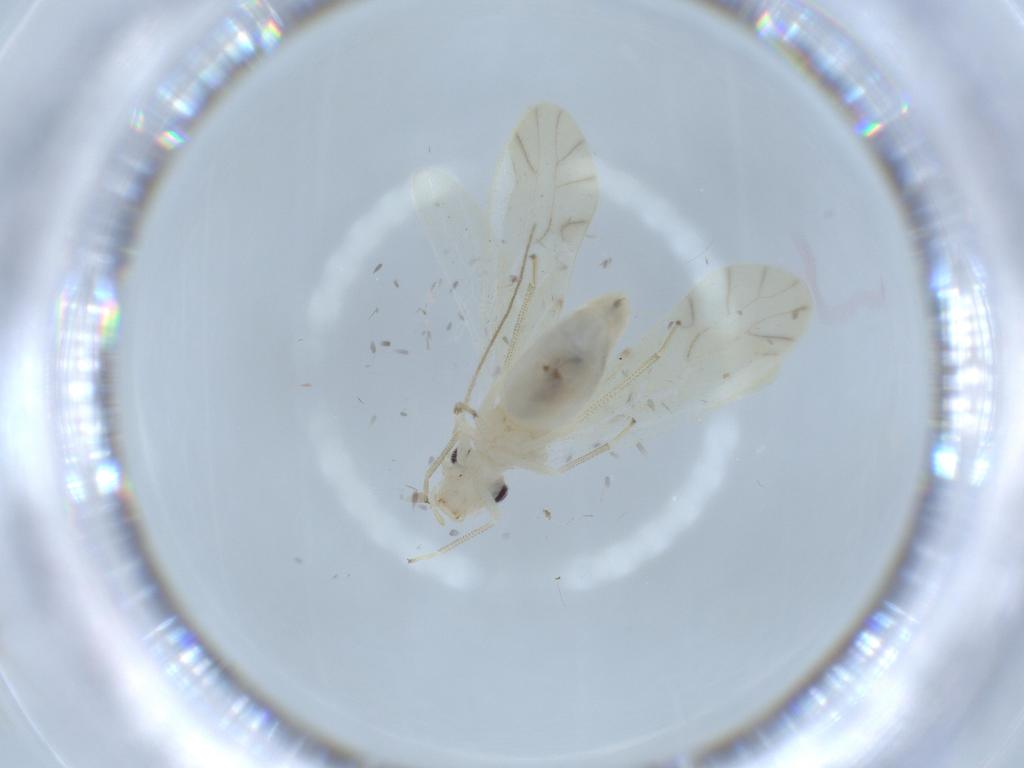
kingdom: Animalia
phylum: Arthropoda
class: Insecta
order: Psocodea
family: Caeciliusidae
